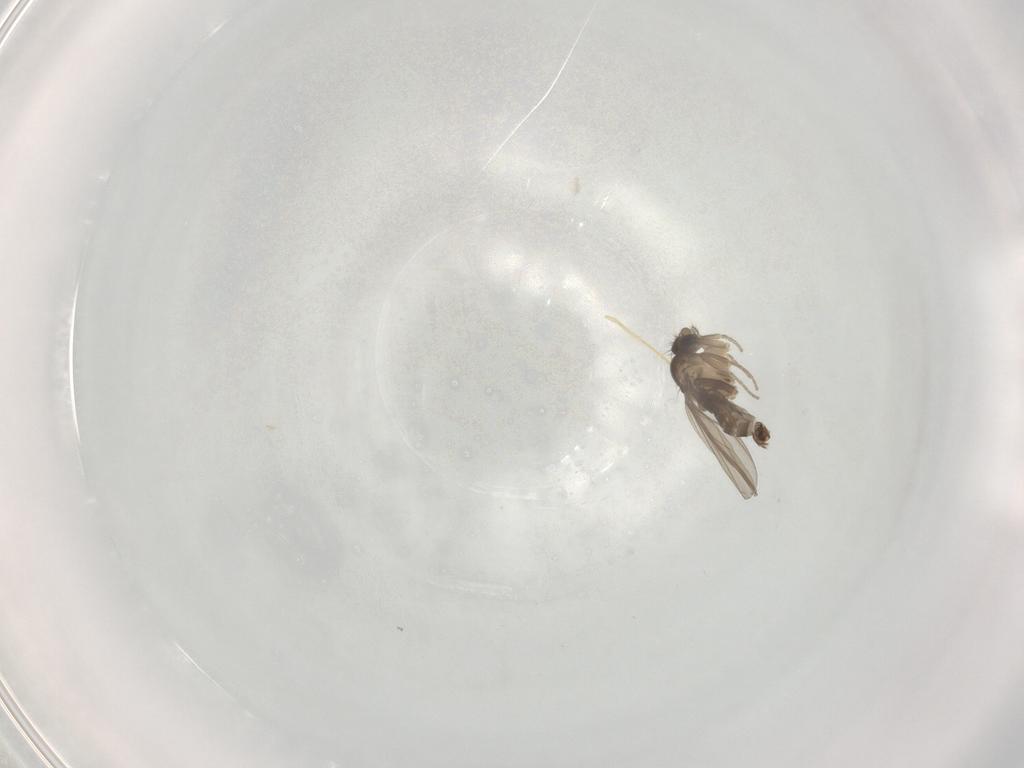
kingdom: Animalia
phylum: Arthropoda
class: Insecta
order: Diptera
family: Phoridae
